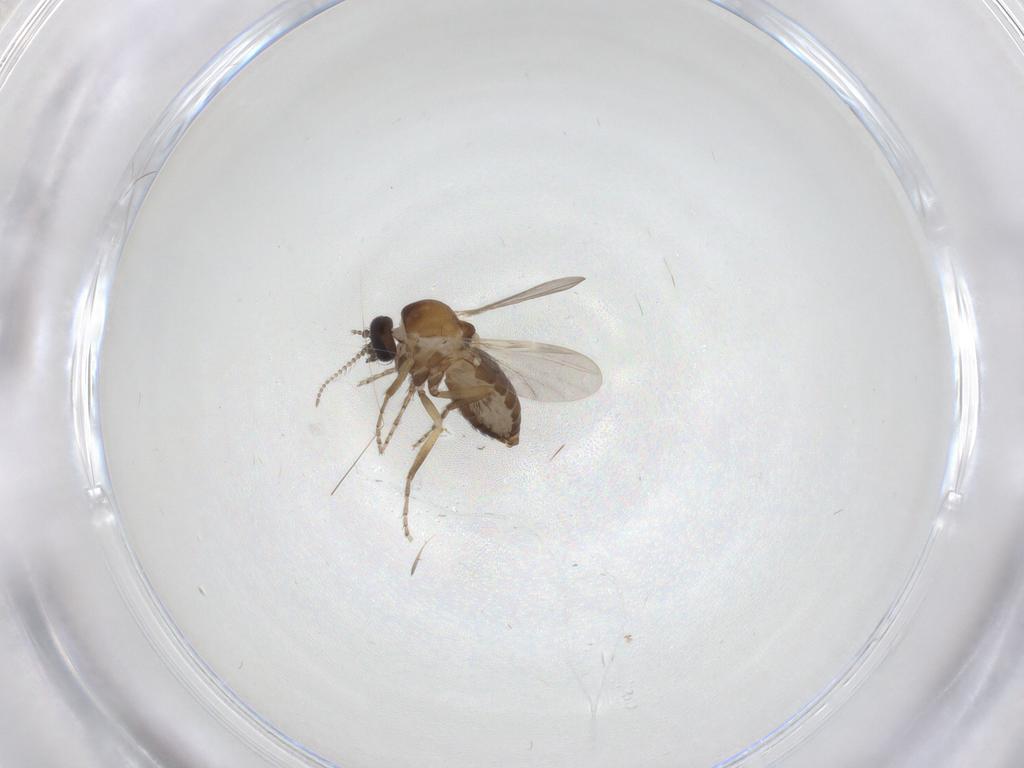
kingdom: Animalia
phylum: Arthropoda
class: Insecta
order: Diptera
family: Ceratopogonidae
